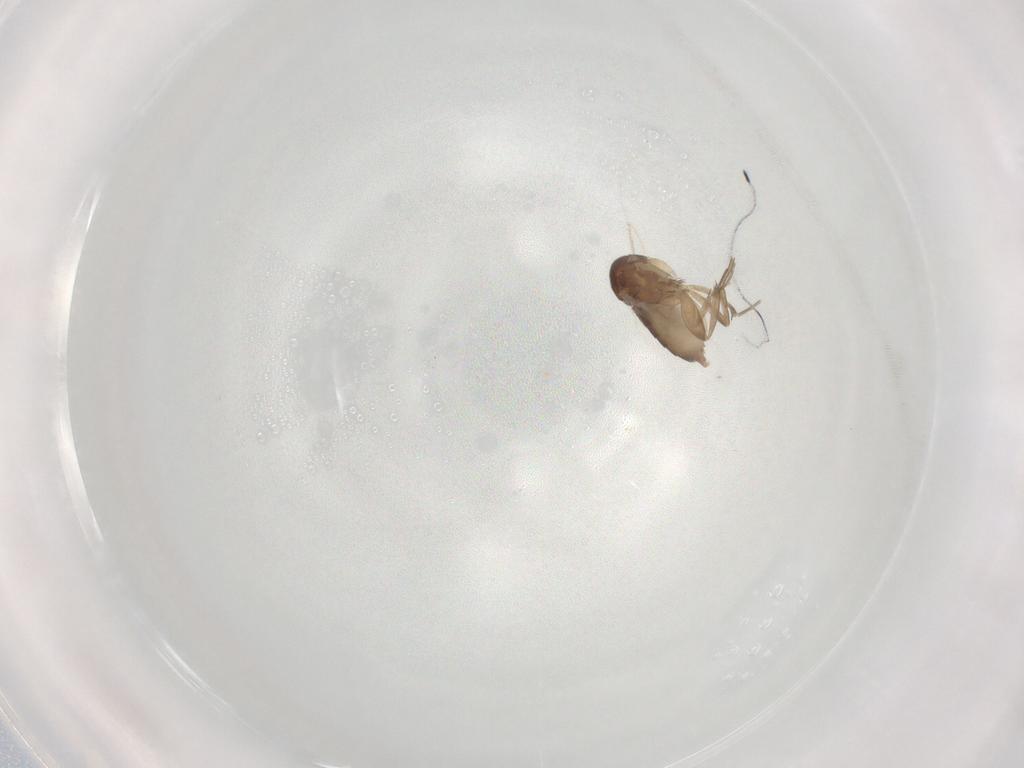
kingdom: Animalia
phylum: Arthropoda
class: Insecta
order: Diptera
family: Phoridae
